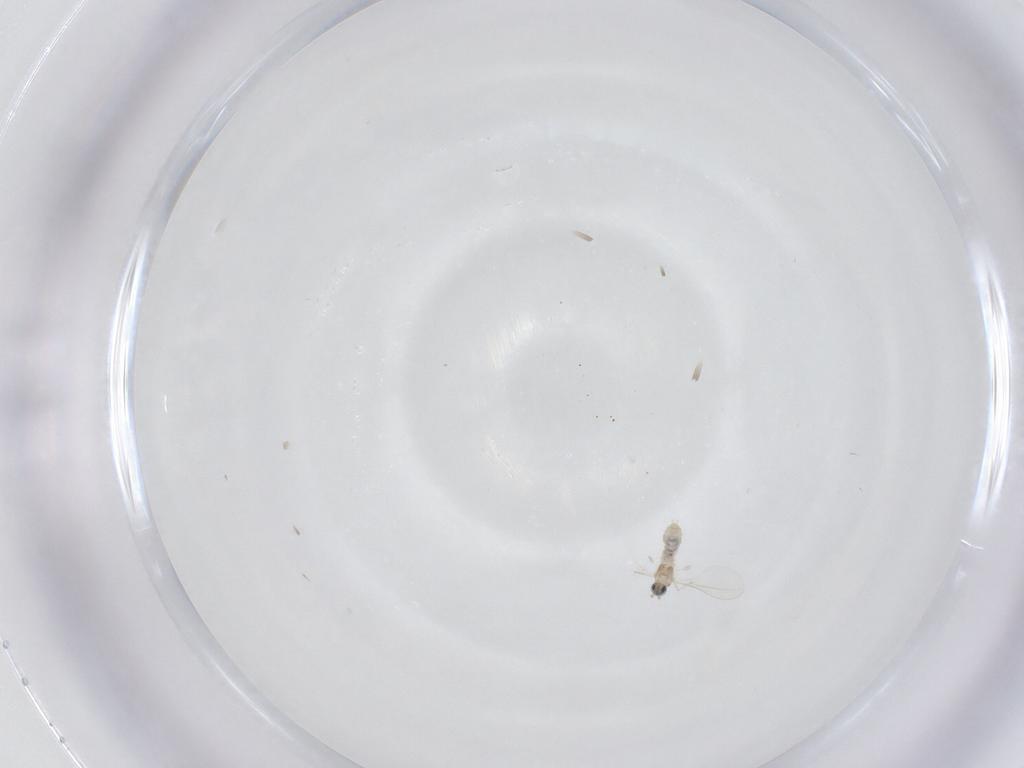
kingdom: Animalia
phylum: Arthropoda
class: Insecta
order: Diptera
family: Cecidomyiidae
